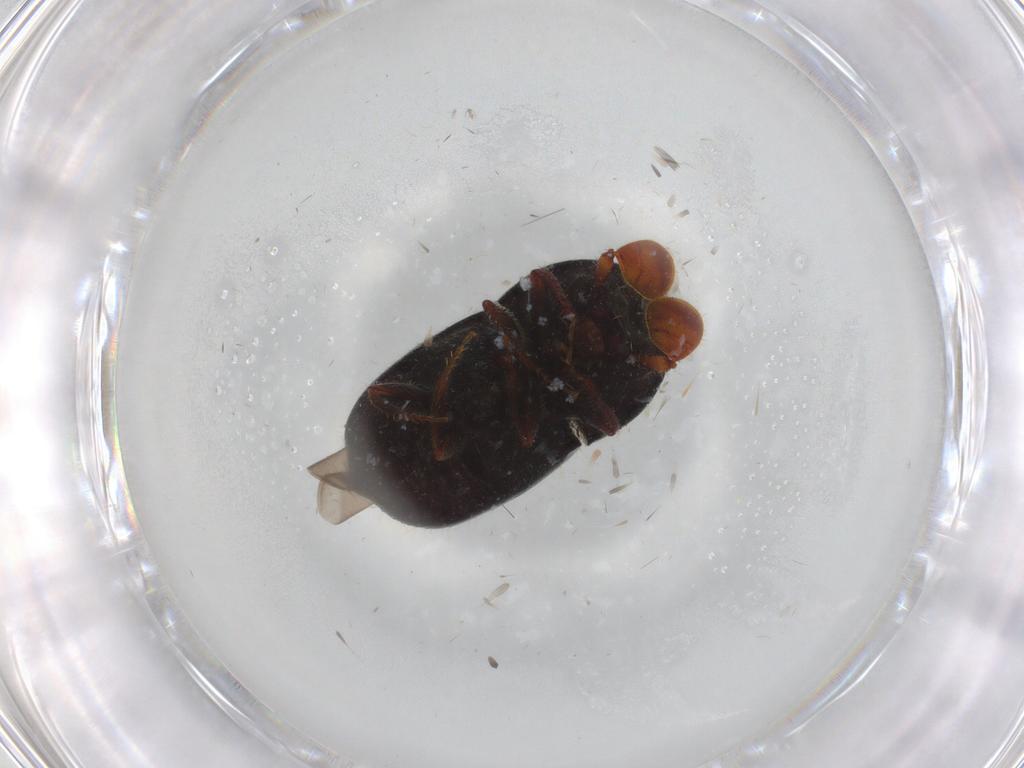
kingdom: Animalia
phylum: Arthropoda
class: Insecta
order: Coleoptera
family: Curculionidae
